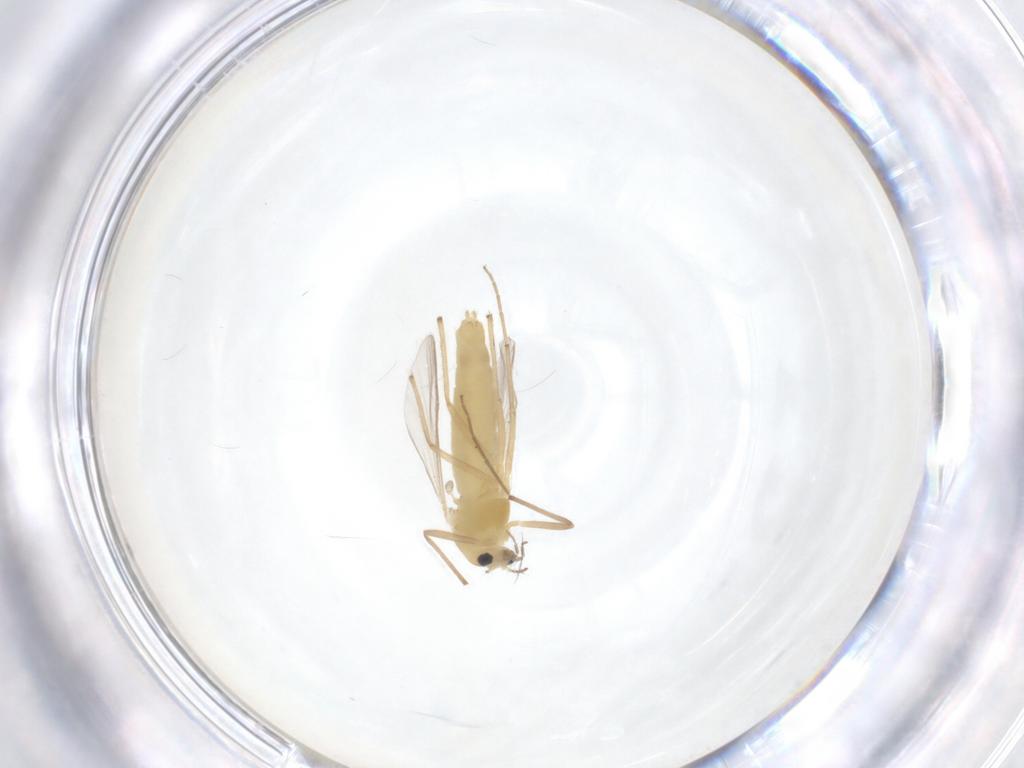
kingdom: Animalia
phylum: Arthropoda
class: Insecta
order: Diptera
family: Chironomidae
